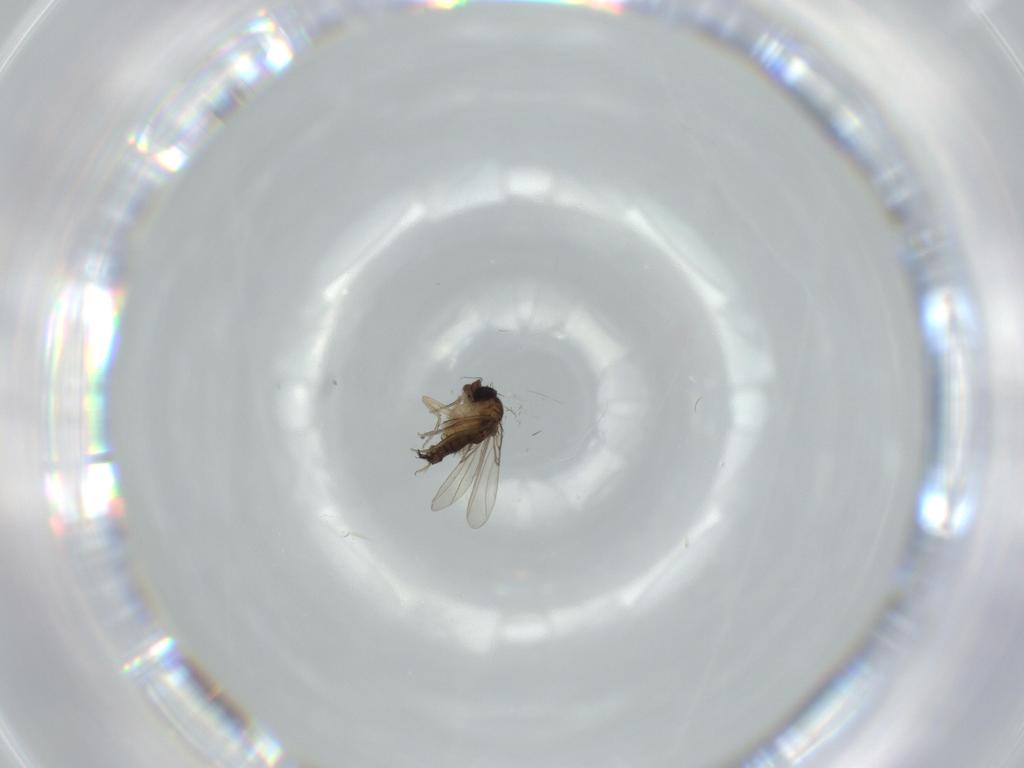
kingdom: Animalia
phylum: Arthropoda
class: Insecta
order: Diptera
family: Phoridae
